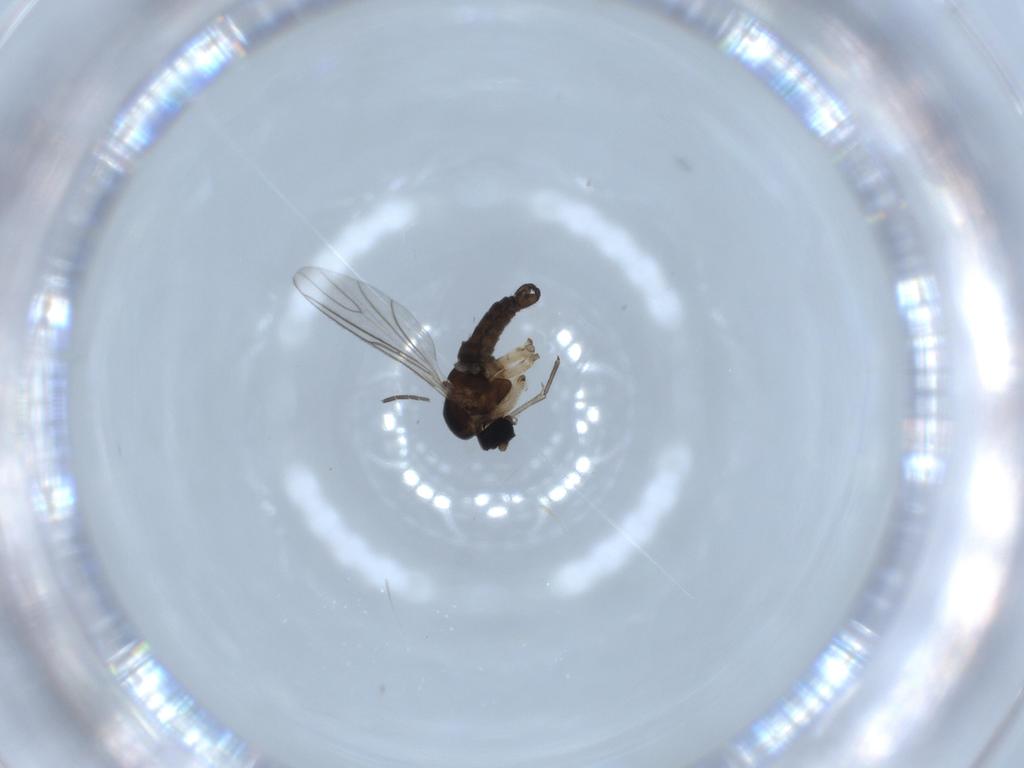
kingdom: Animalia
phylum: Arthropoda
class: Insecta
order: Diptera
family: Sciaridae
